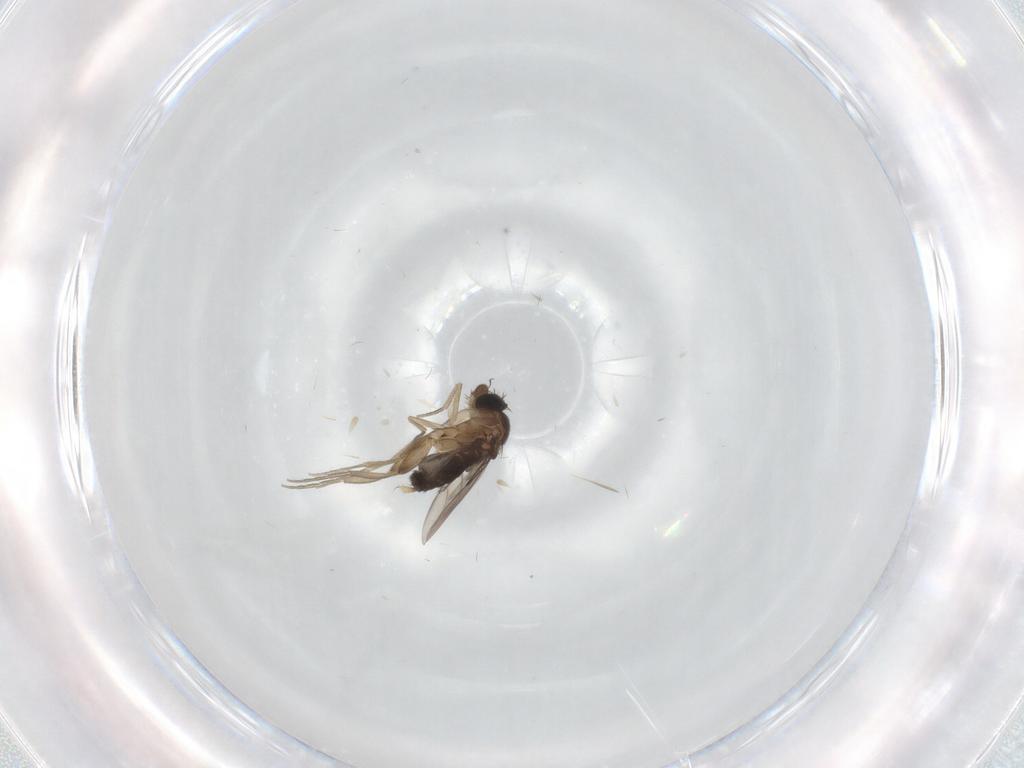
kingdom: Animalia
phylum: Arthropoda
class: Insecta
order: Diptera
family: Phoridae
